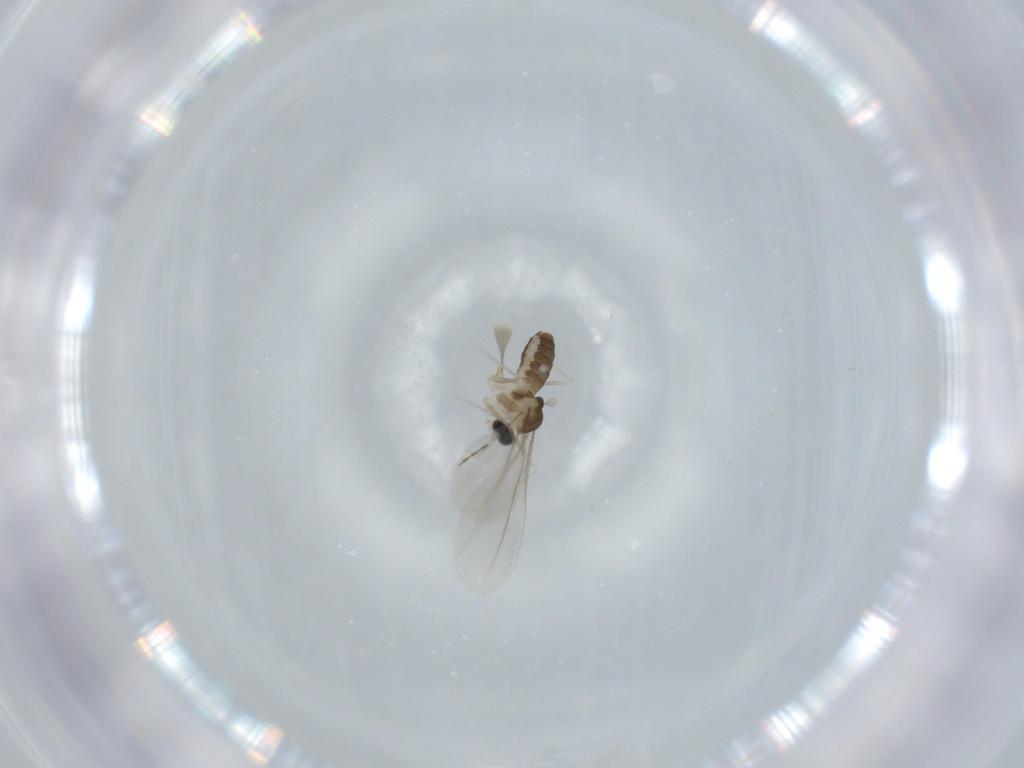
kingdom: Animalia
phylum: Arthropoda
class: Insecta
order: Diptera
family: Cecidomyiidae
